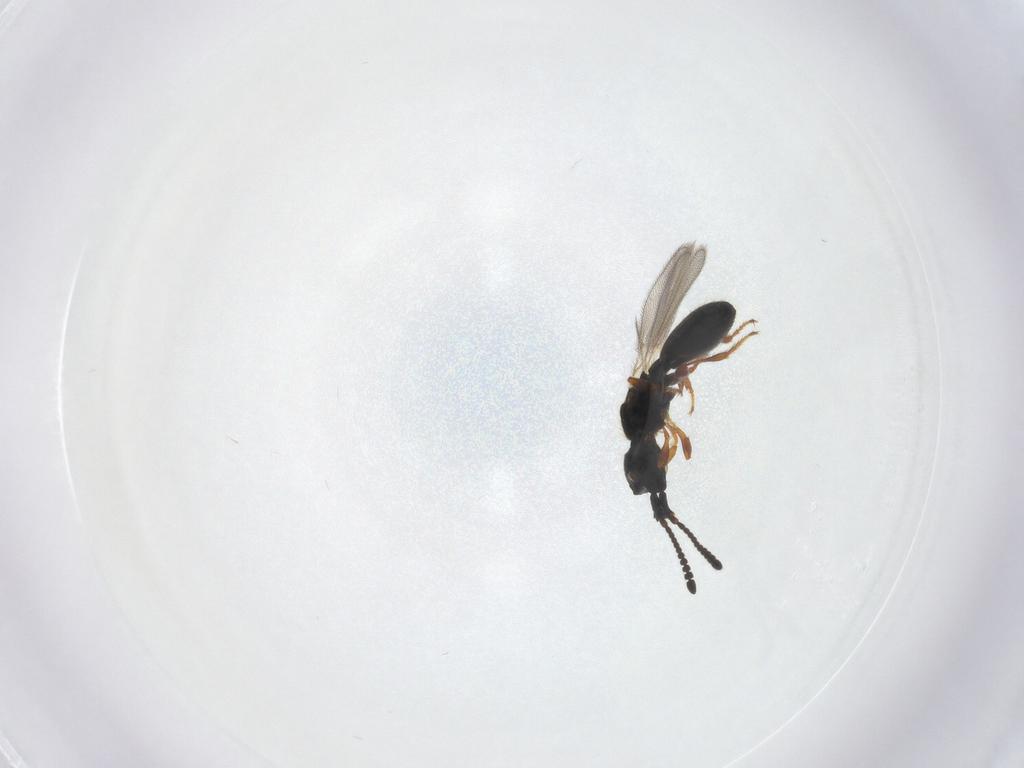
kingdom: Animalia
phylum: Arthropoda
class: Insecta
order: Hymenoptera
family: Diapriidae
